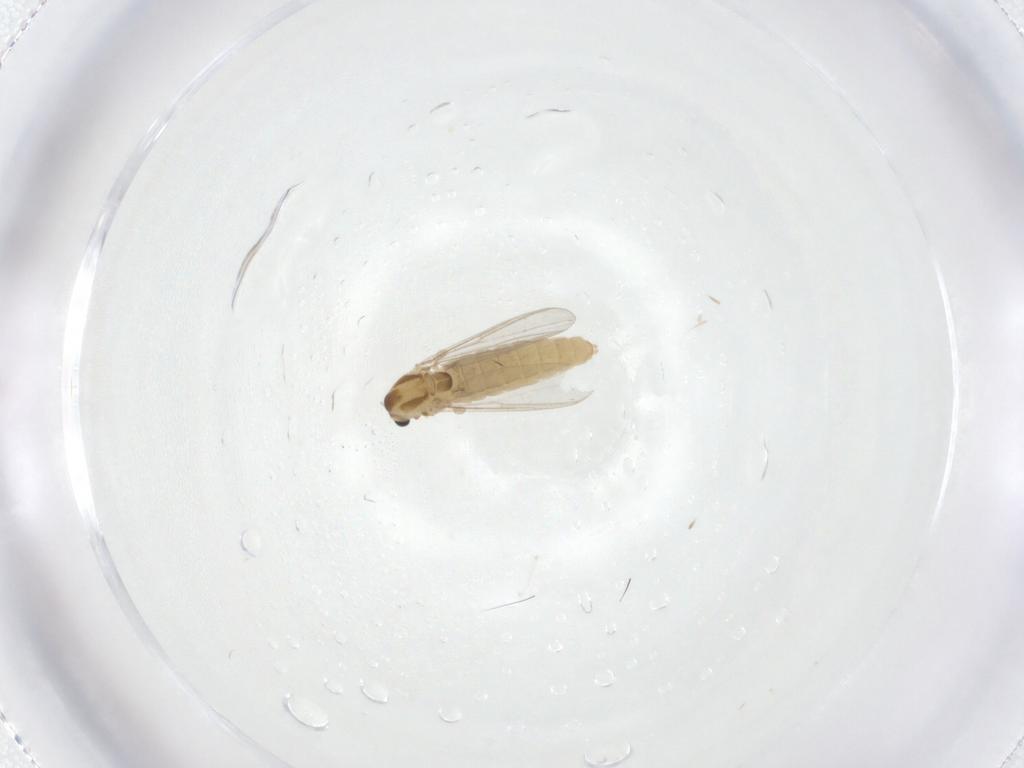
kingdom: Animalia
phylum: Arthropoda
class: Insecta
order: Diptera
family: Chironomidae
